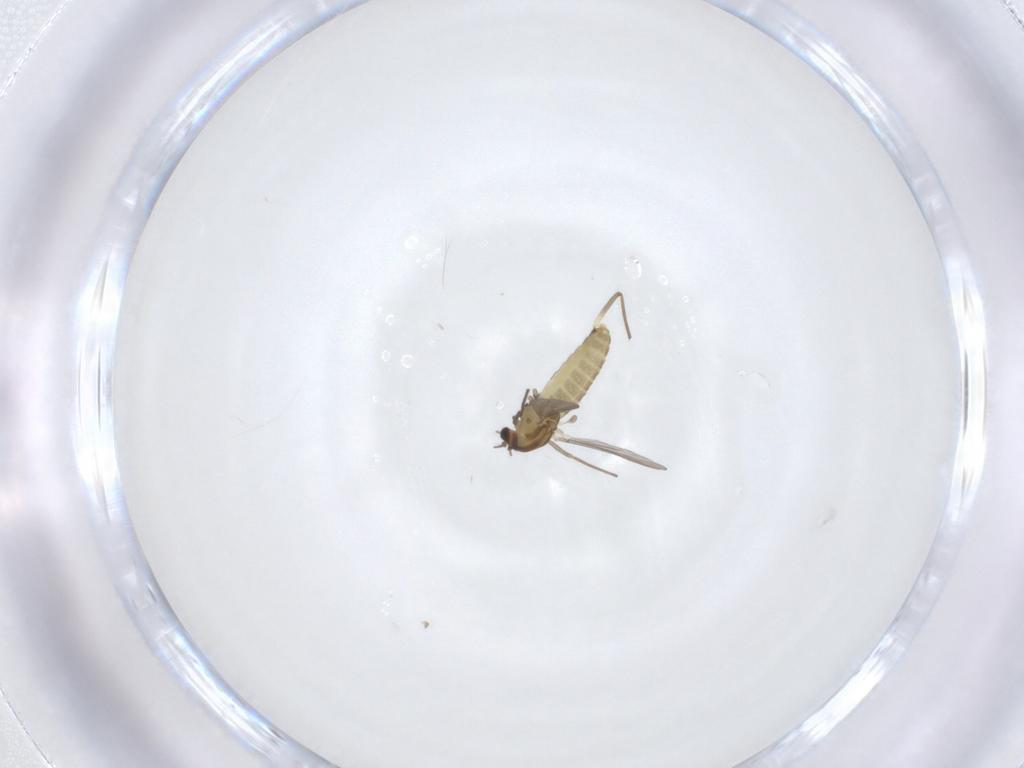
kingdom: Animalia
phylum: Arthropoda
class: Insecta
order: Diptera
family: Chironomidae
